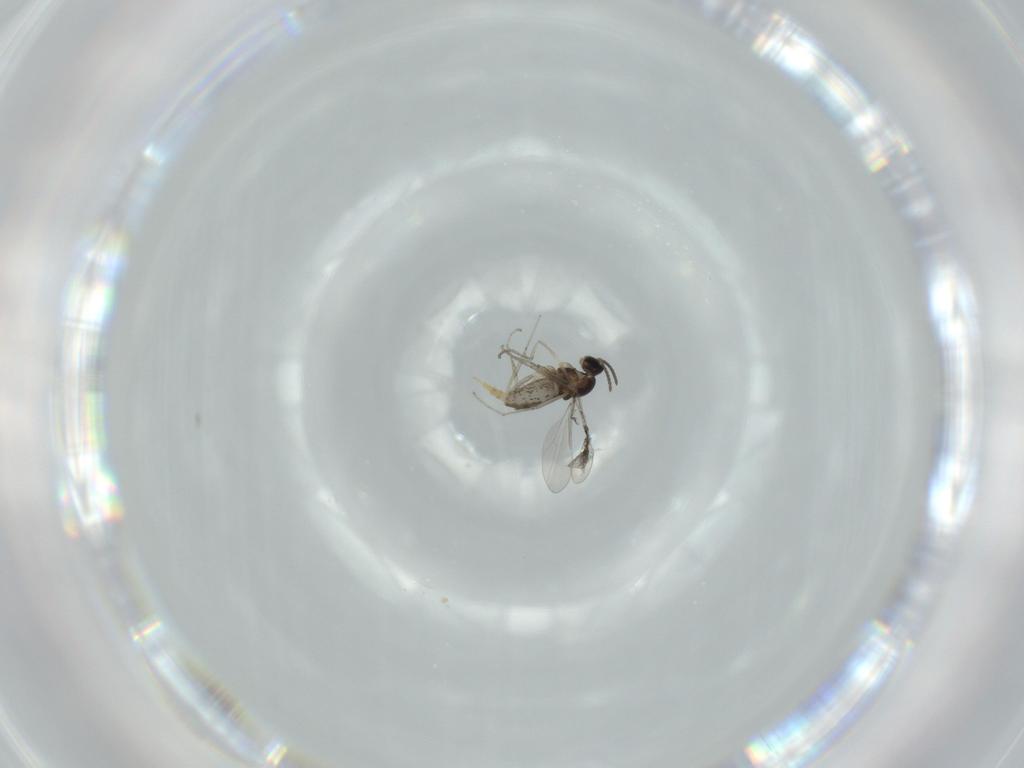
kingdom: Animalia
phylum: Arthropoda
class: Insecta
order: Diptera
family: Cecidomyiidae
